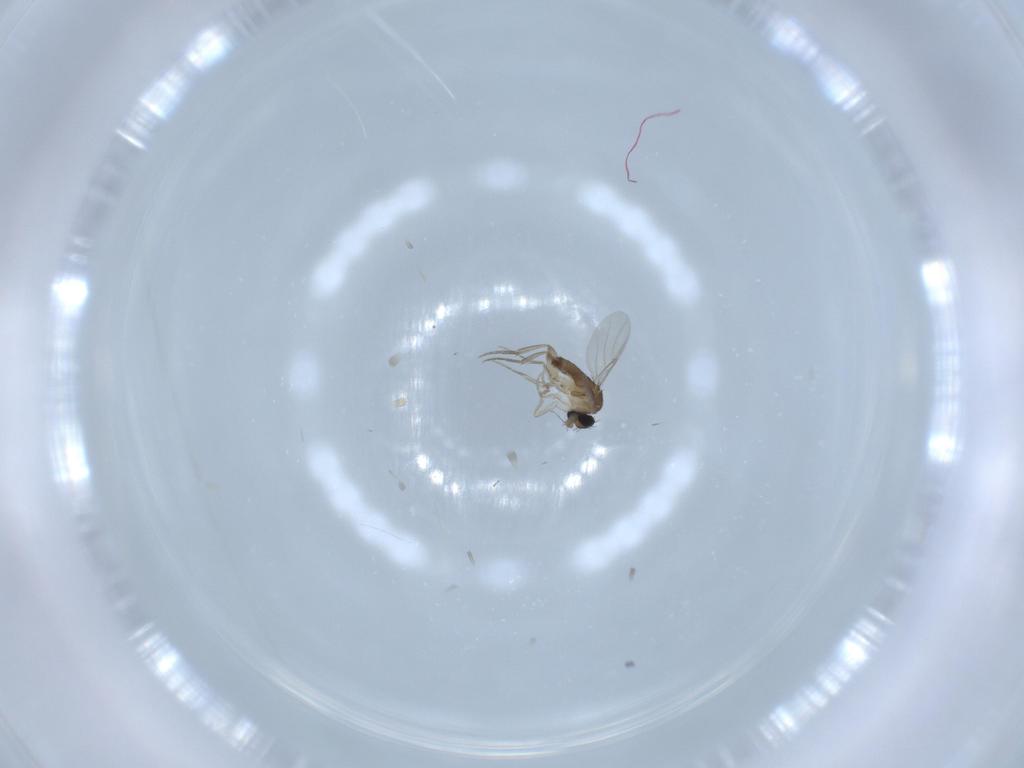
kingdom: Animalia
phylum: Arthropoda
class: Insecta
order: Diptera
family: Phoridae
